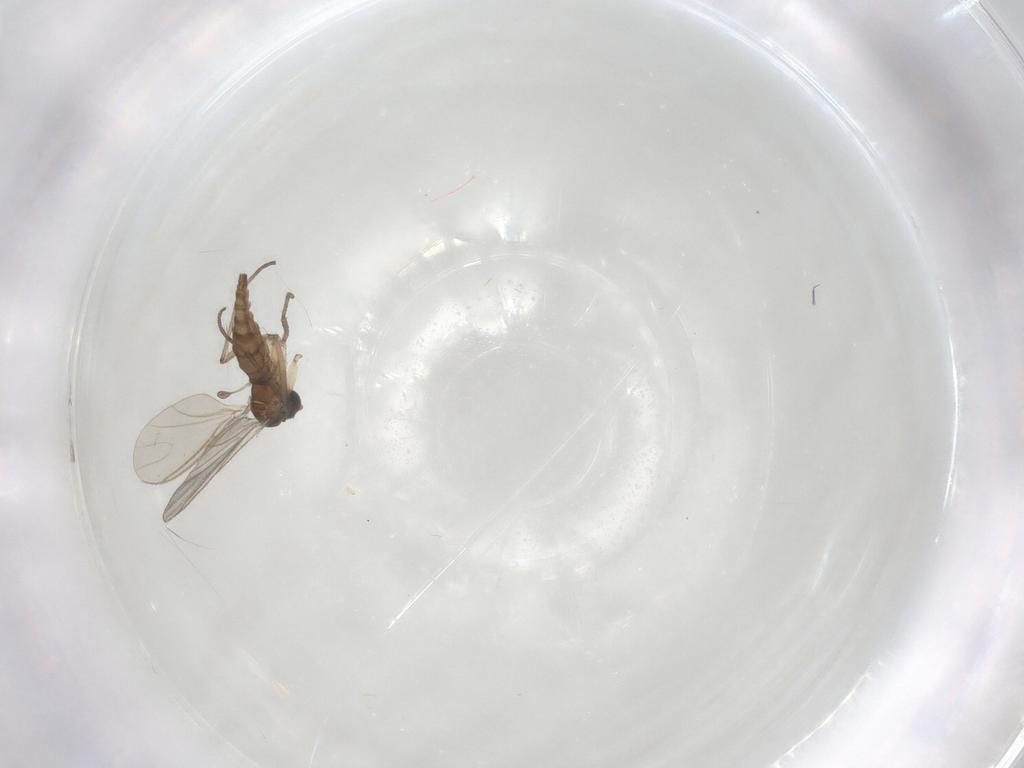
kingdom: Animalia
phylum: Arthropoda
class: Insecta
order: Diptera
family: Sciaridae
